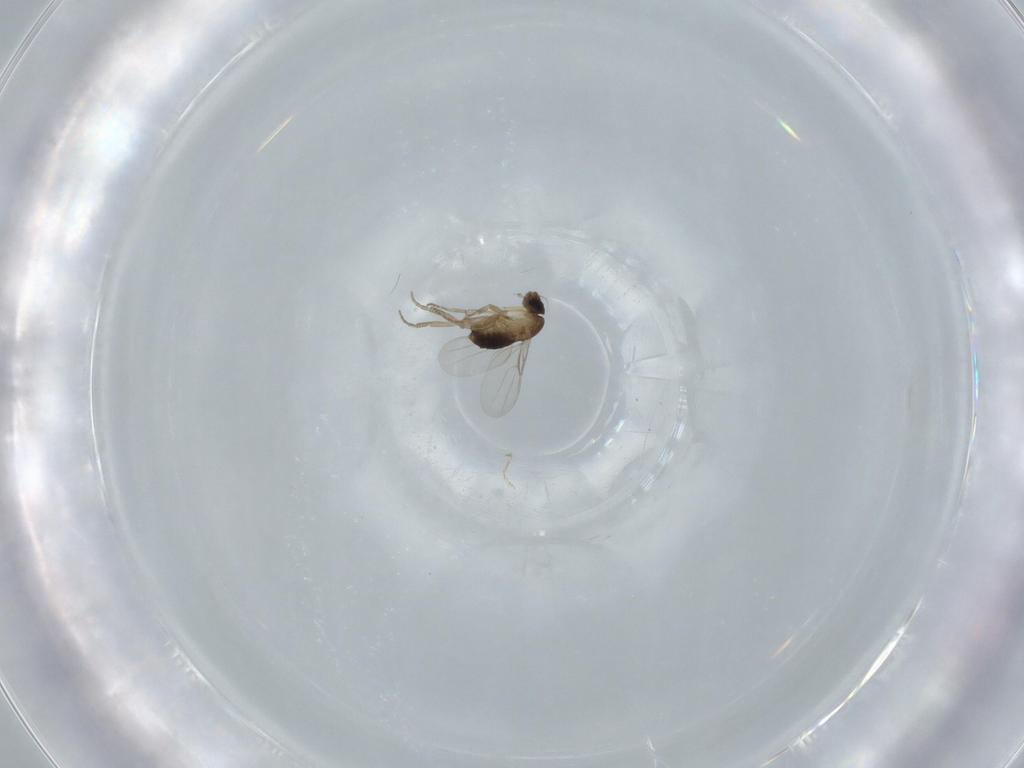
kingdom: Animalia
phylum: Arthropoda
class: Insecta
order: Diptera
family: Phoridae
